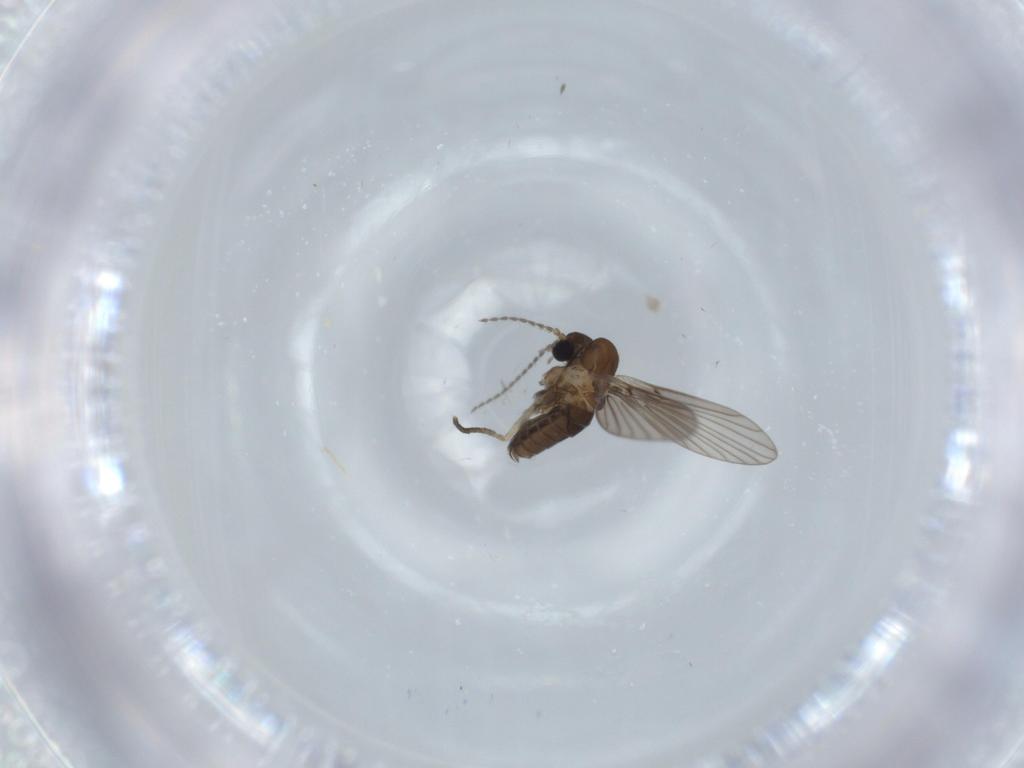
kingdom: Animalia
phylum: Arthropoda
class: Insecta
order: Diptera
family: Psychodidae
